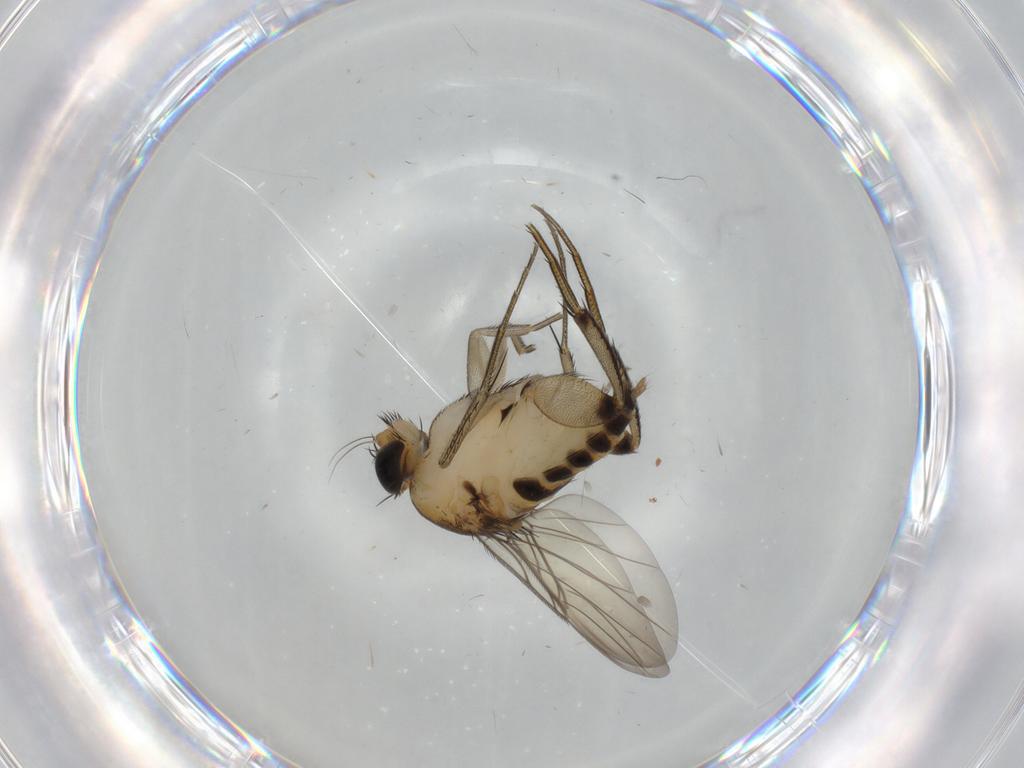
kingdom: Animalia
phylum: Arthropoda
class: Insecta
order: Diptera
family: Phoridae
